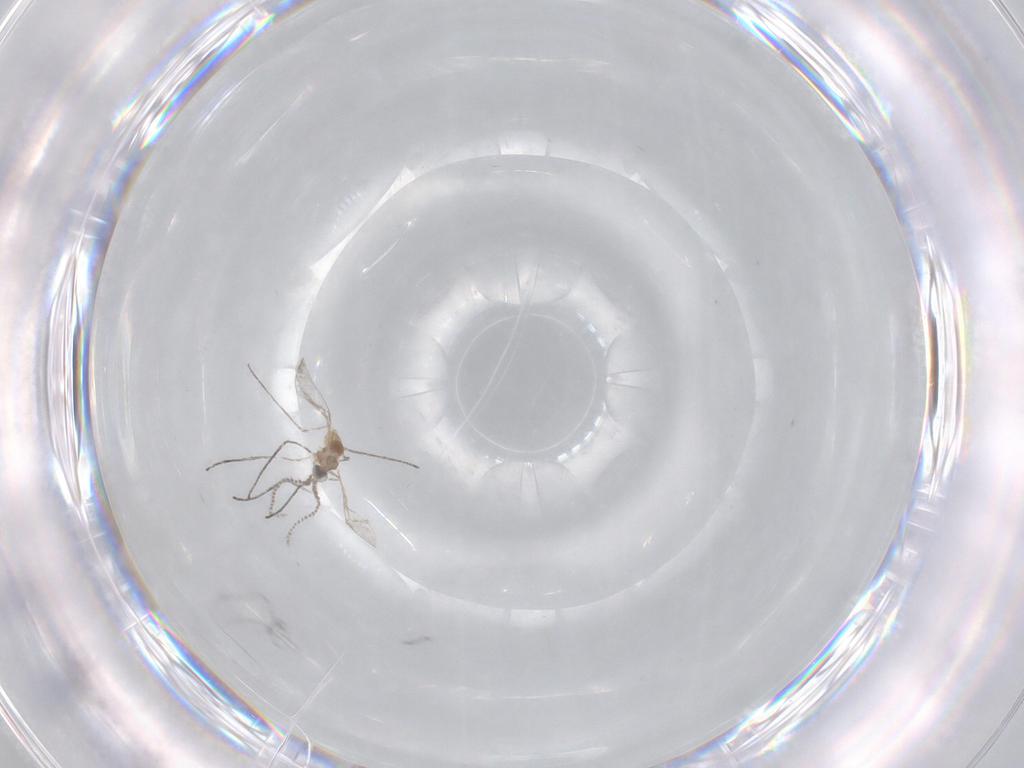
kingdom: Animalia
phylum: Arthropoda
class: Insecta
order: Diptera
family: Cecidomyiidae
